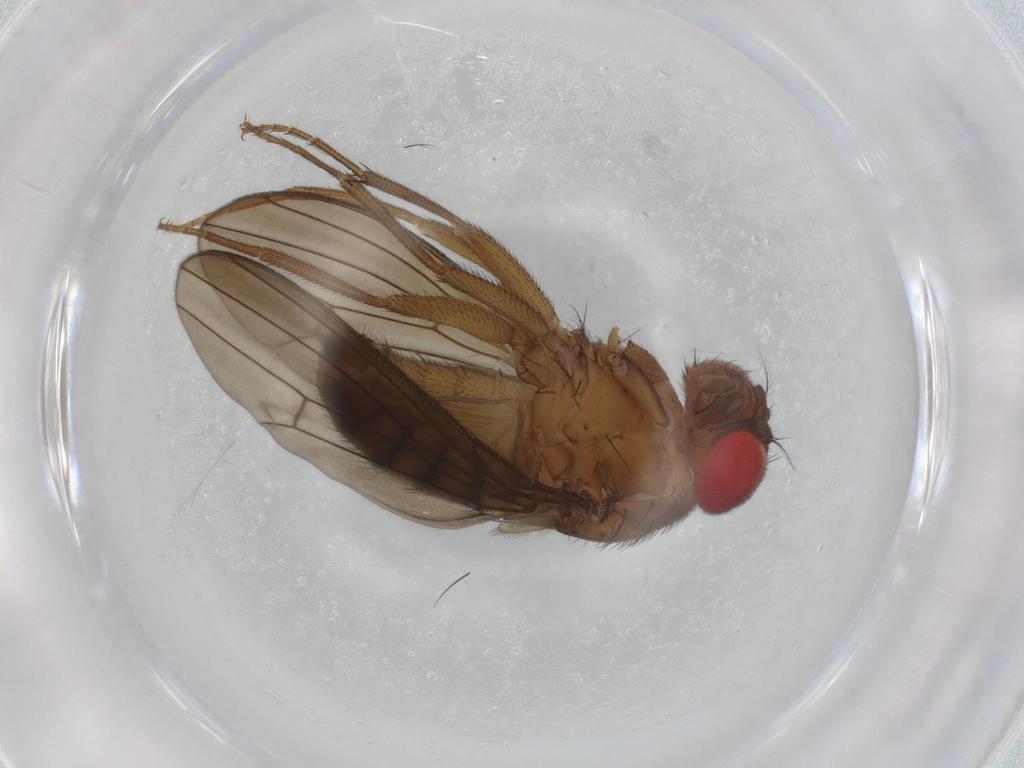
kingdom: Animalia
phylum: Arthropoda
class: Insecta
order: Diptera
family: Drosophilidae
